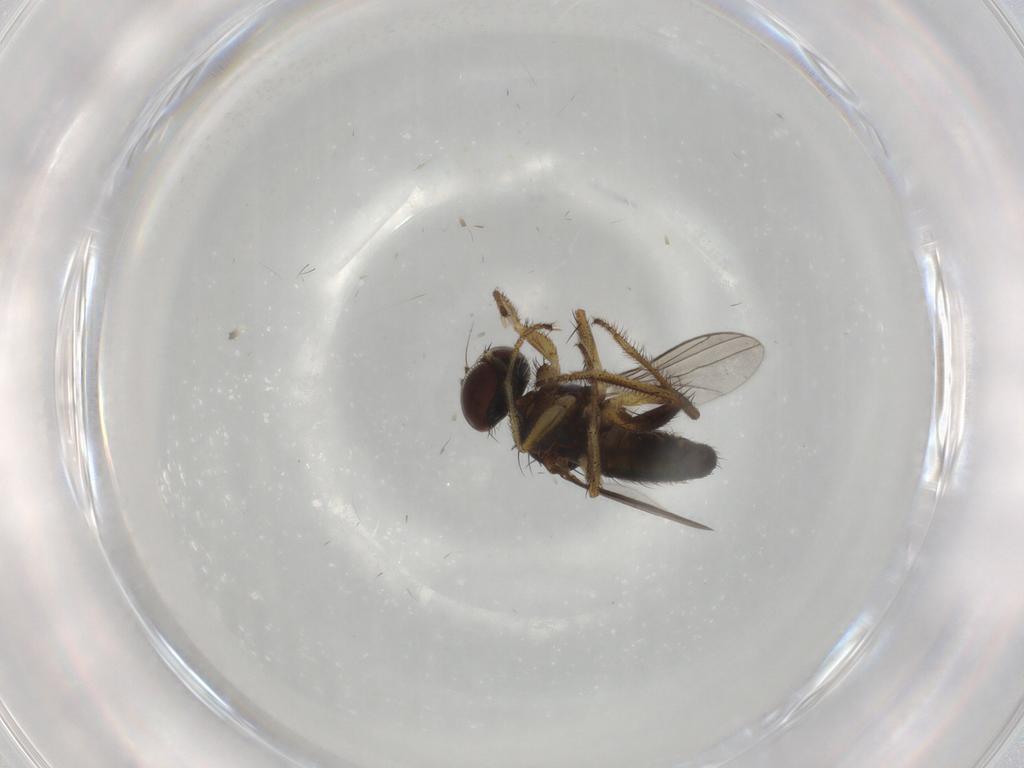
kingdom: Animalia
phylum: Arthropoda
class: Insecta
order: Diptera
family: Dolichopodidae
